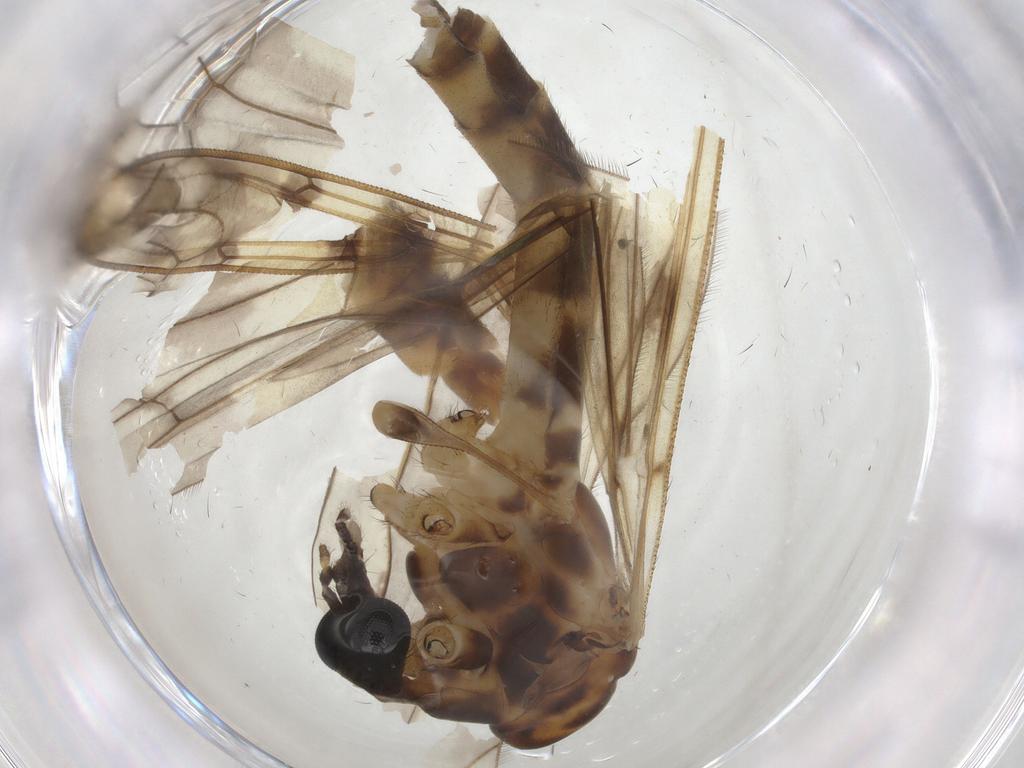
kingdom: Animalia
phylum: Arthropoda
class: Insecta
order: Diptera
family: Limoniidae
